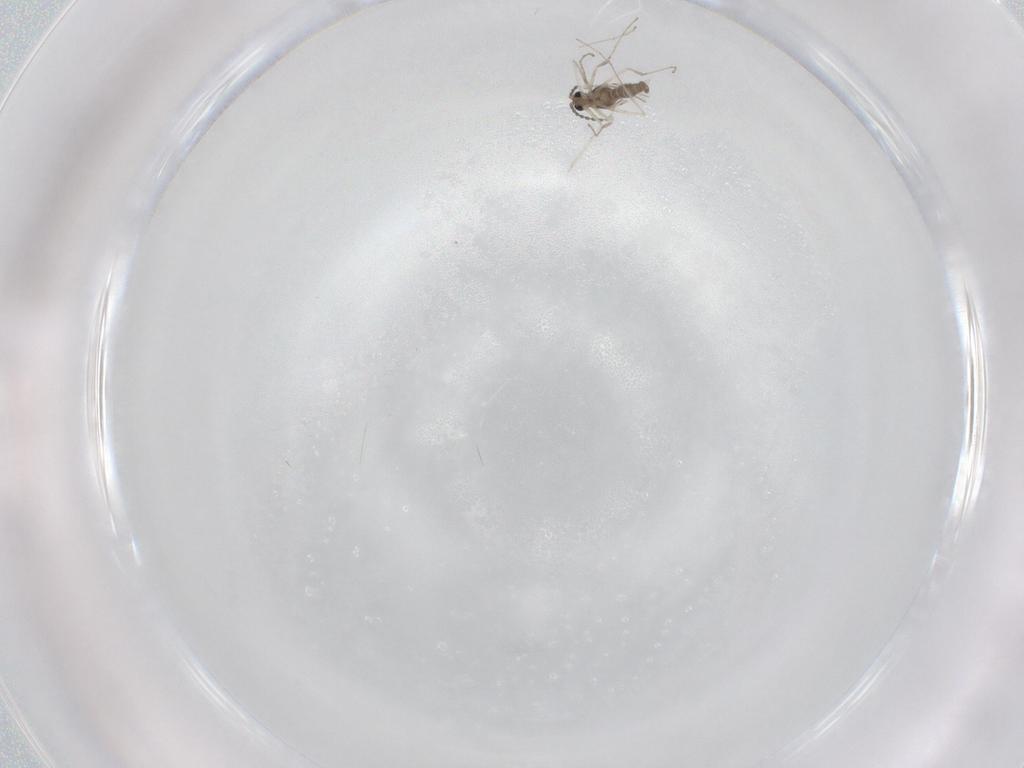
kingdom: Animalia
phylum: Arthropoda
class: Insecta
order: Diptera
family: Cecidomyiidae
